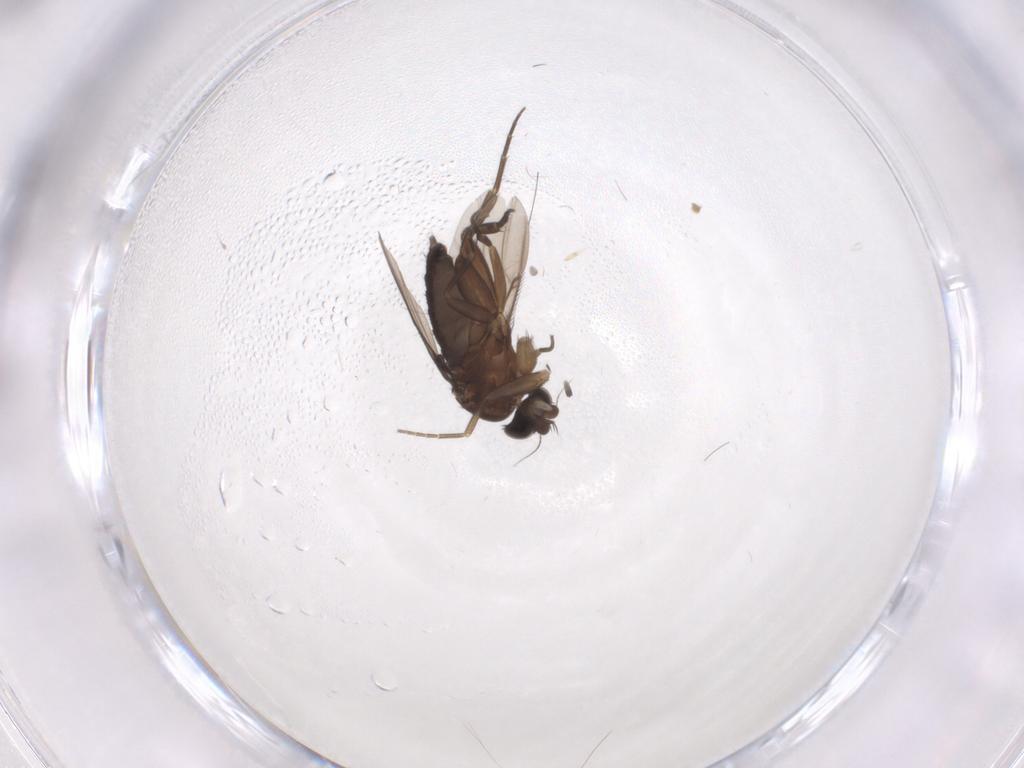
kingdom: Animalia
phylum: Arthropoda
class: Insecta
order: Diptera
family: Phoridae
